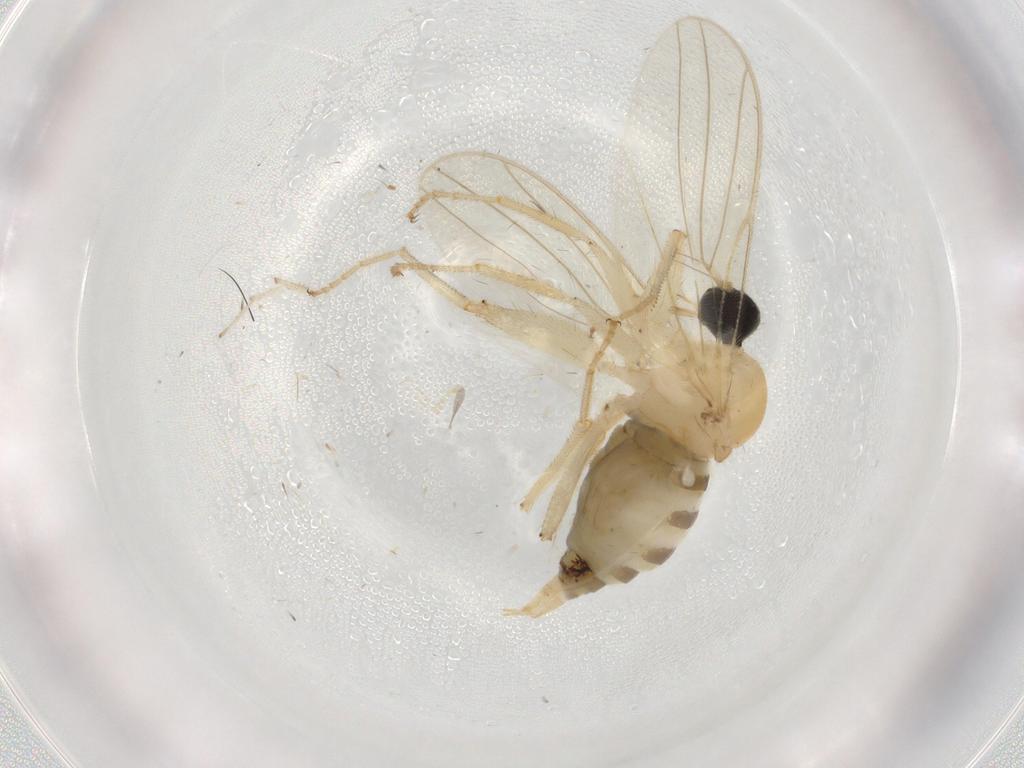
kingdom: Animalia
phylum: Arthropoda
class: Insecta
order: Diptera
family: Hybotidae
